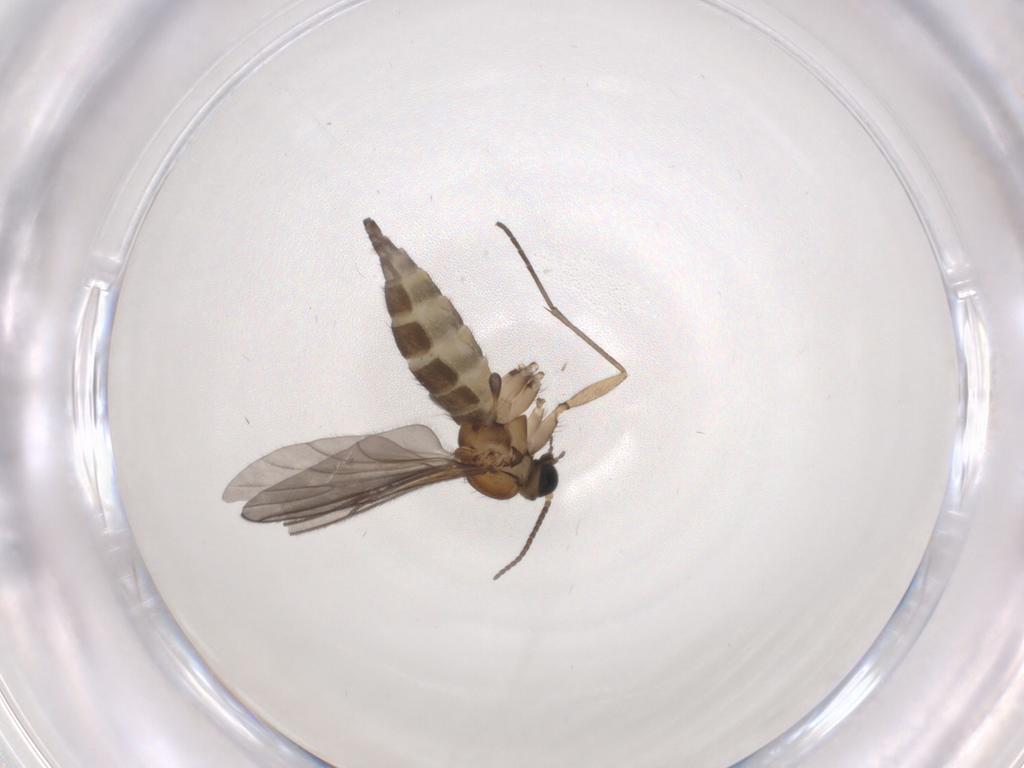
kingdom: Animalia
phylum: Arthropoda
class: Insecta
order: Diptera
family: Sciaridae
